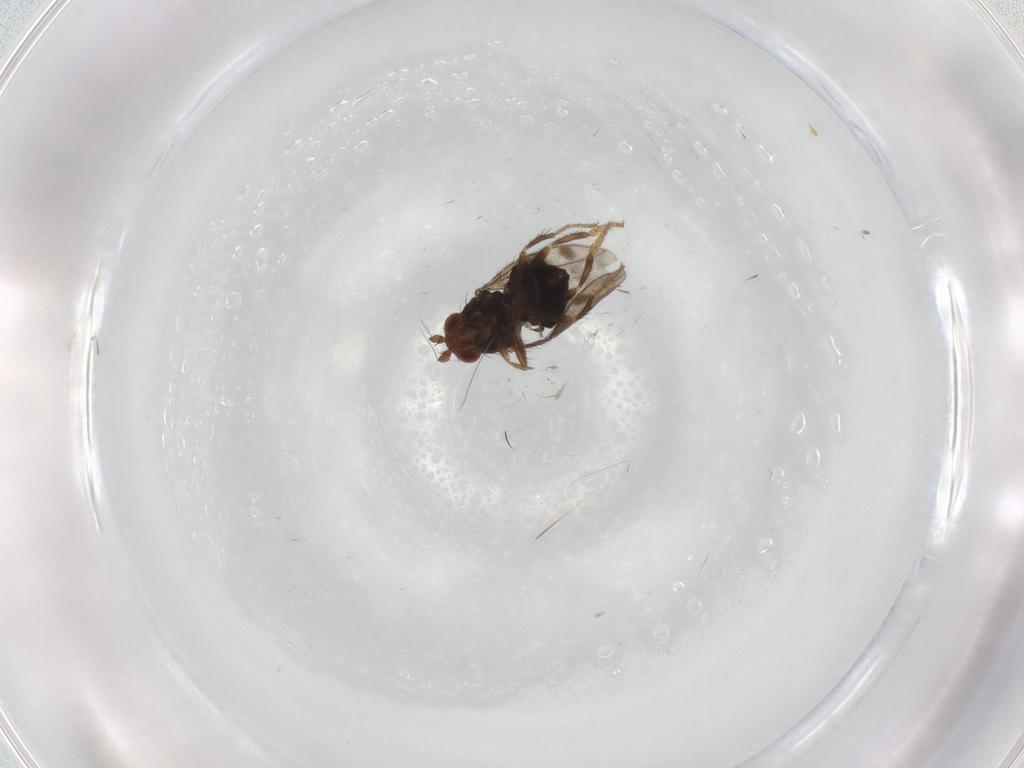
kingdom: Animalia
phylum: Arthropoda
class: Insecta
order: Diptera
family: Sphaeroceridae
